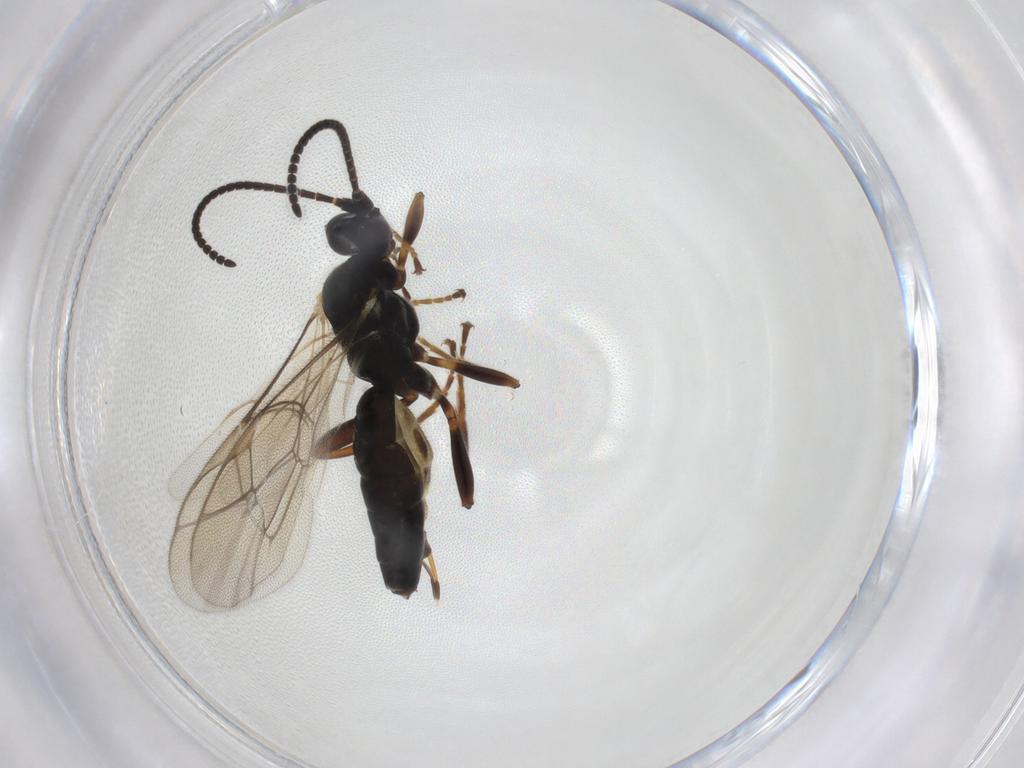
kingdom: Animalia
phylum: Arthropoda
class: Insecta
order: Hymenoptera
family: Ichneumonidae
